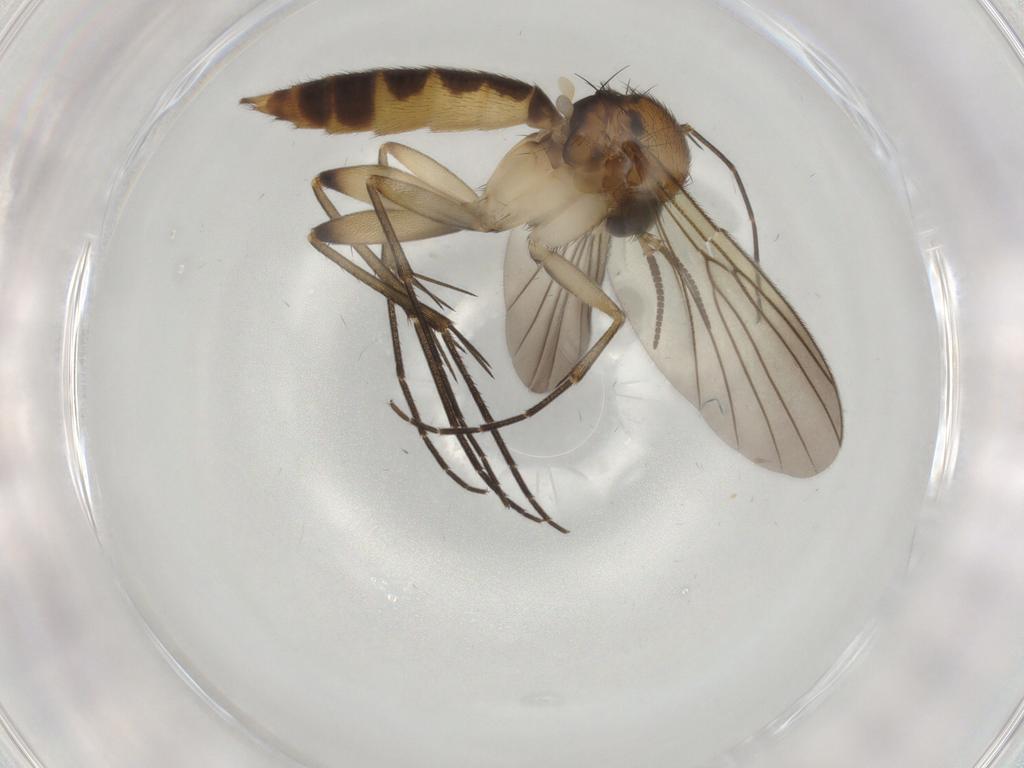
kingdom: Animalia
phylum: Arthropoda
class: Insecta
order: Diptera
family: Mycetophilidae
